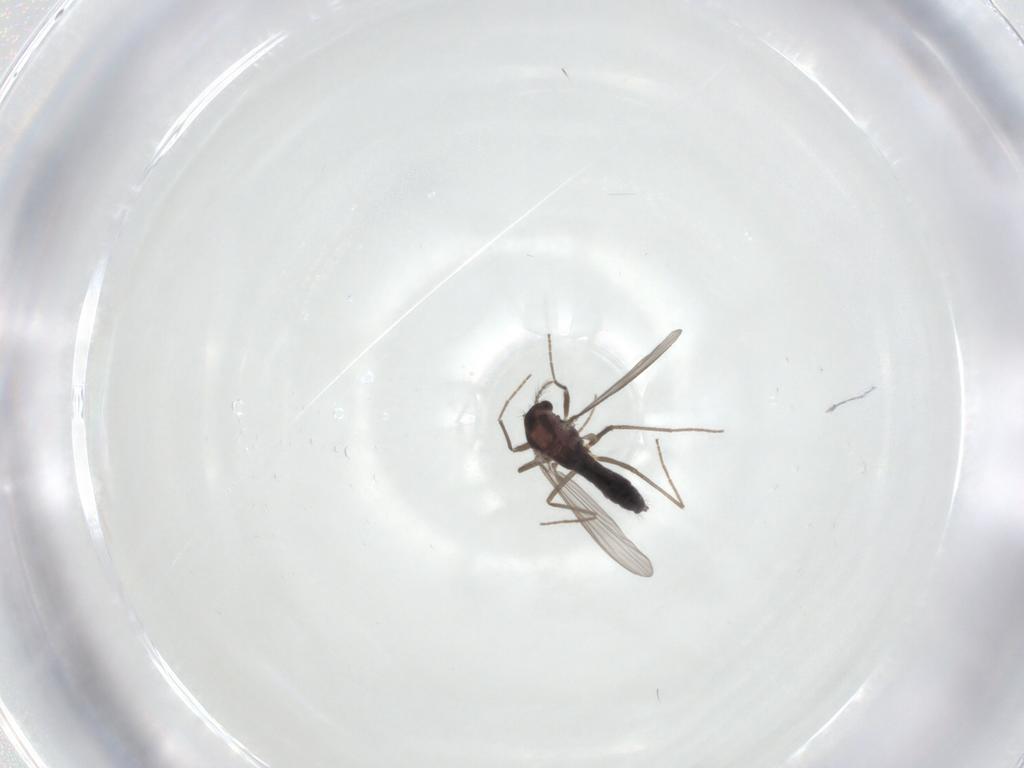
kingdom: Animalia
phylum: Arthropoda
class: Insecta
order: Diptera
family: Chironomidae
